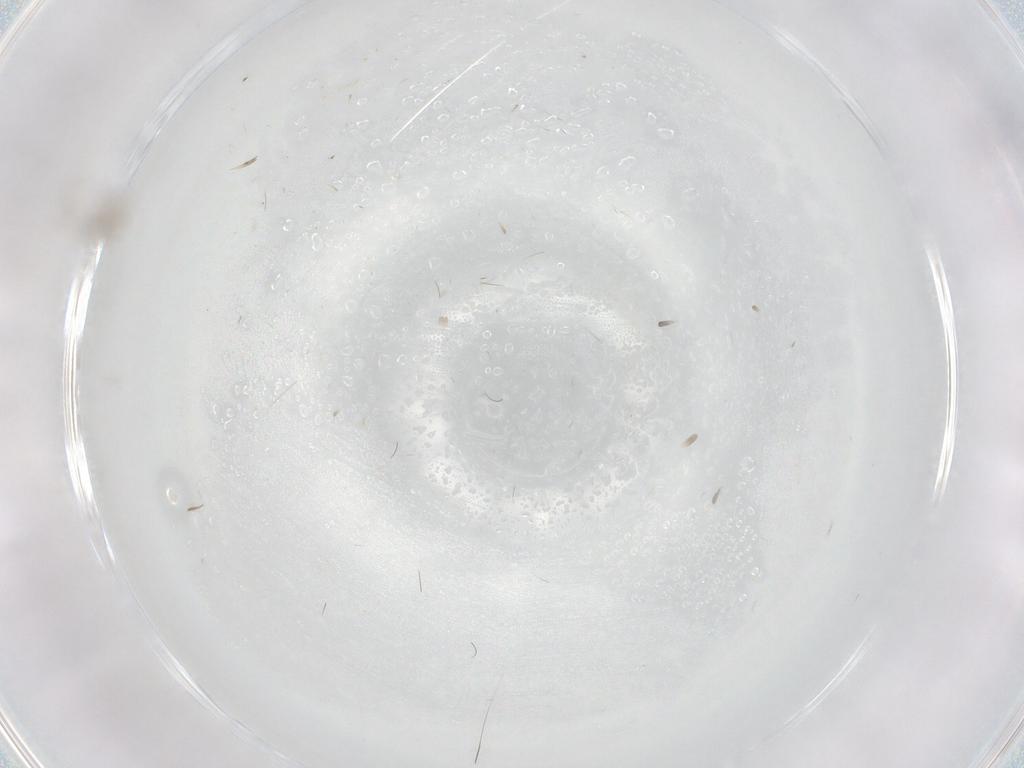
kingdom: Animalia
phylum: Arthropoda
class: Insecta
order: Diptera
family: Cecidomyiidae
